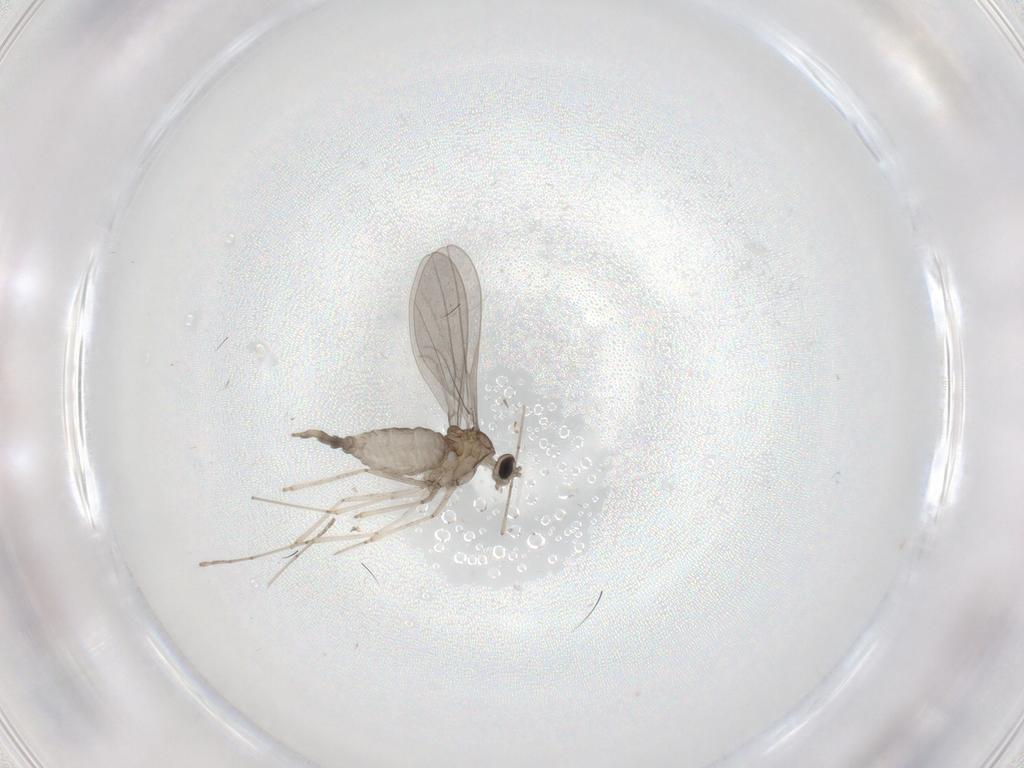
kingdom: Animalia
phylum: Arthropoda
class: Insecta
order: Diptera
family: Cecidomyiidae
